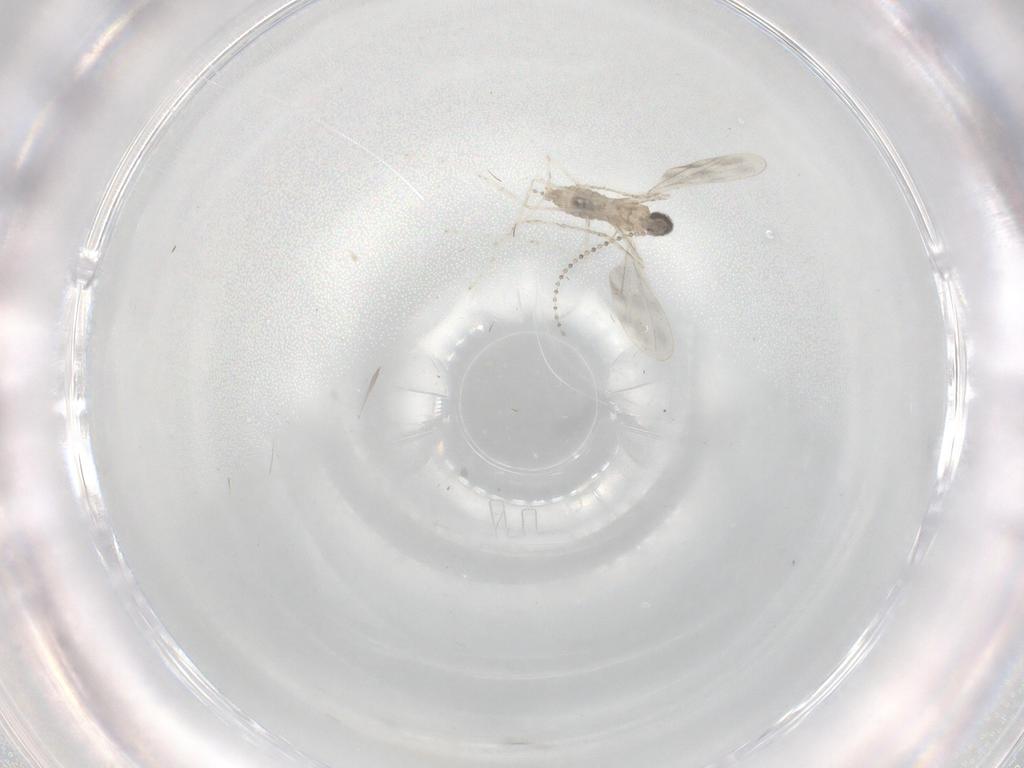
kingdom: Animalia
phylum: Arthropoda
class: Insecta
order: Diptera
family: Cecidomyiidae
